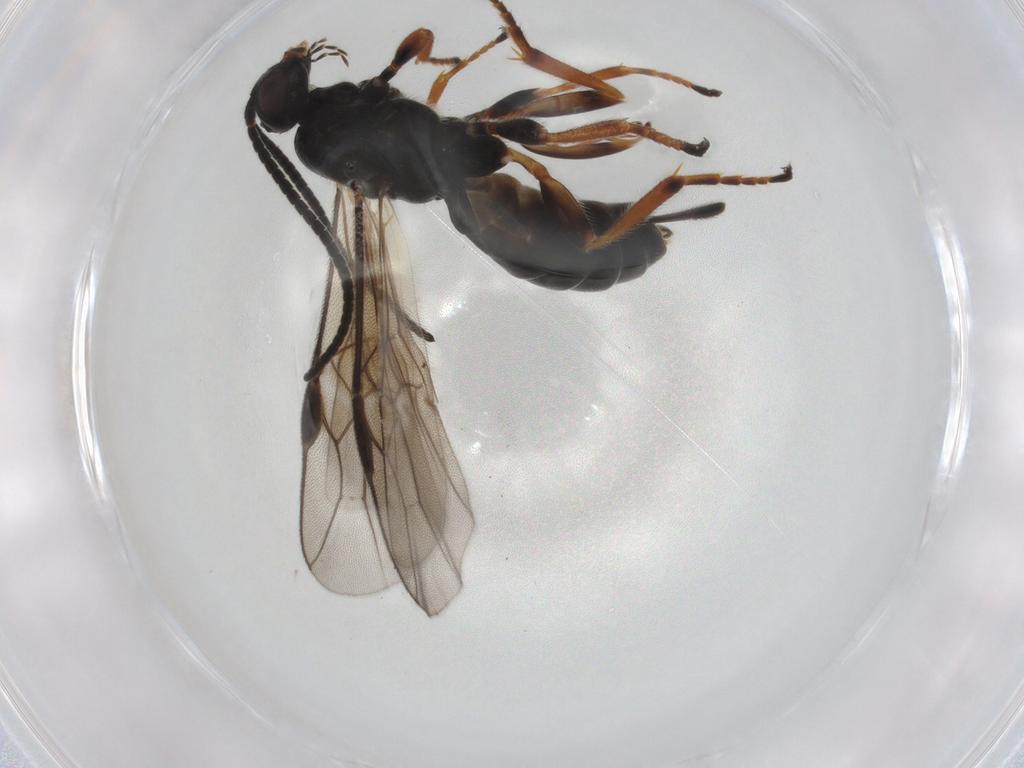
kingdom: Animalia
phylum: Arthropoda
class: Insecta
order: Hymenoptera
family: Braconidae
